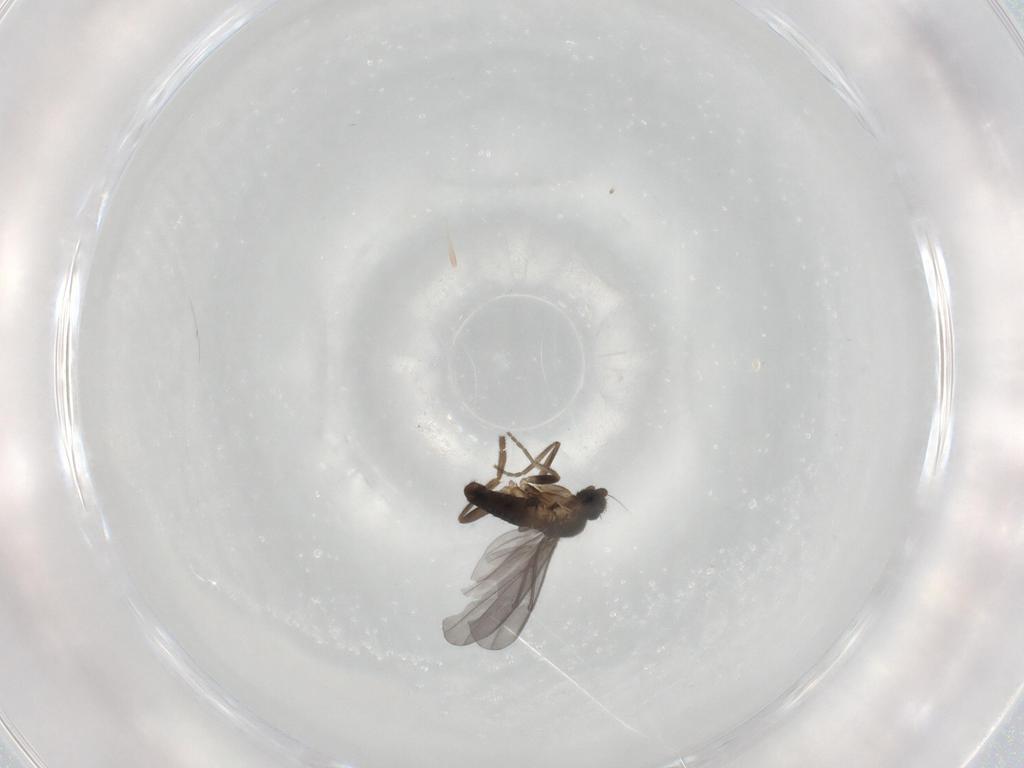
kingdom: Animalia
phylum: Arthropoda
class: Insecta
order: Diptera
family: Phoridae
